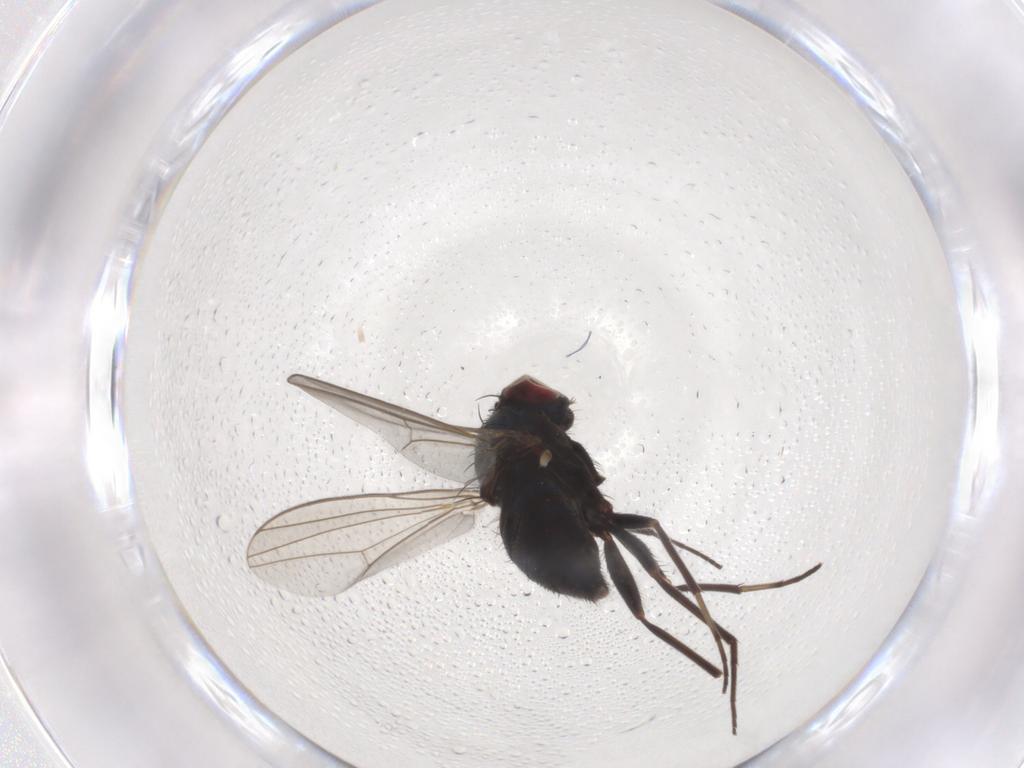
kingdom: Animalia
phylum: Arthropoda
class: Insecta
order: Diptera
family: Dolichopodidae
